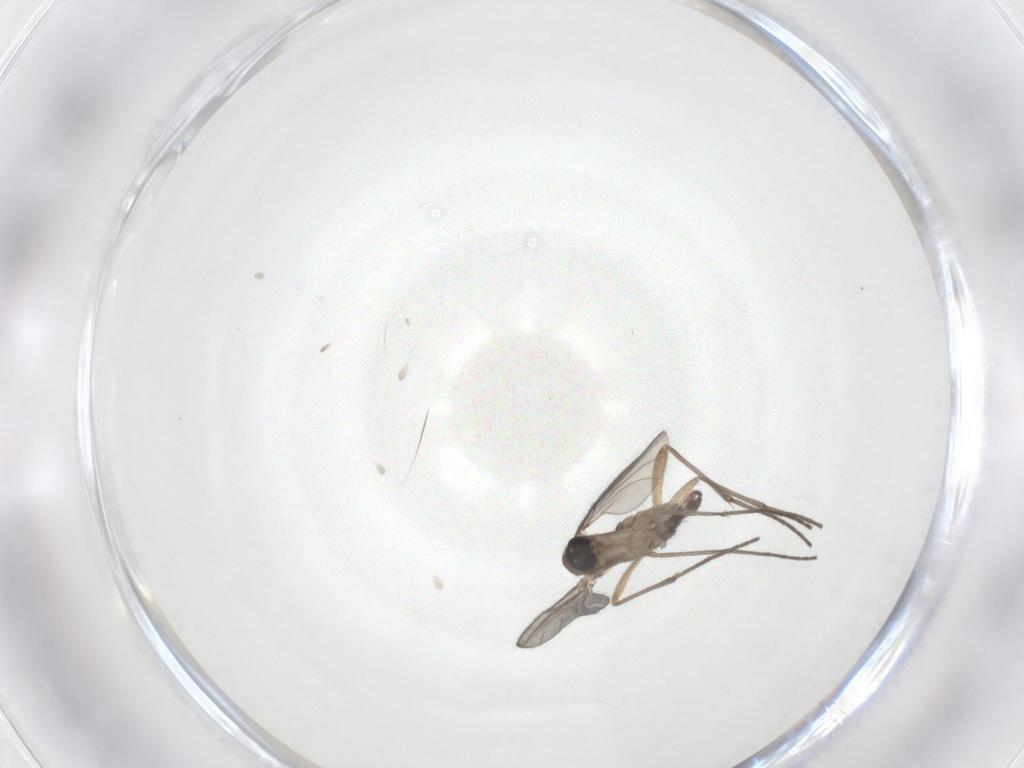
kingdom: Animalia
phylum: Arthropoda
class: Insecta
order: Diptera
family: Sciaridae
